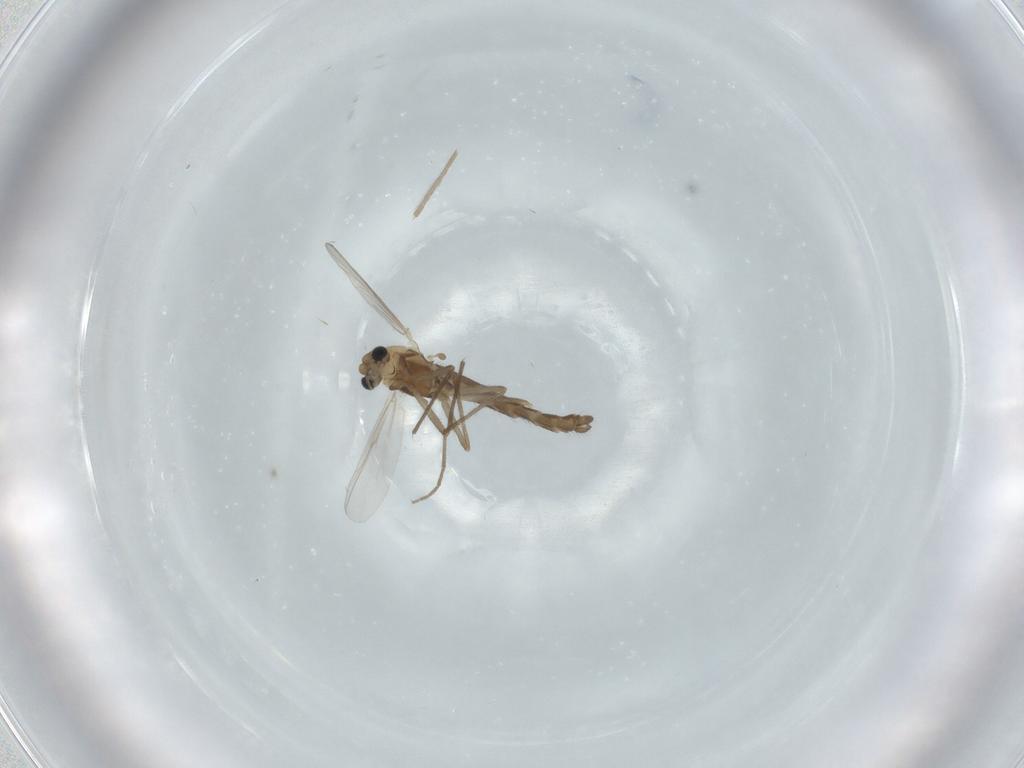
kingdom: Animalia
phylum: Arthropoda
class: Insecta
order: Diptera
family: Chironomidae
